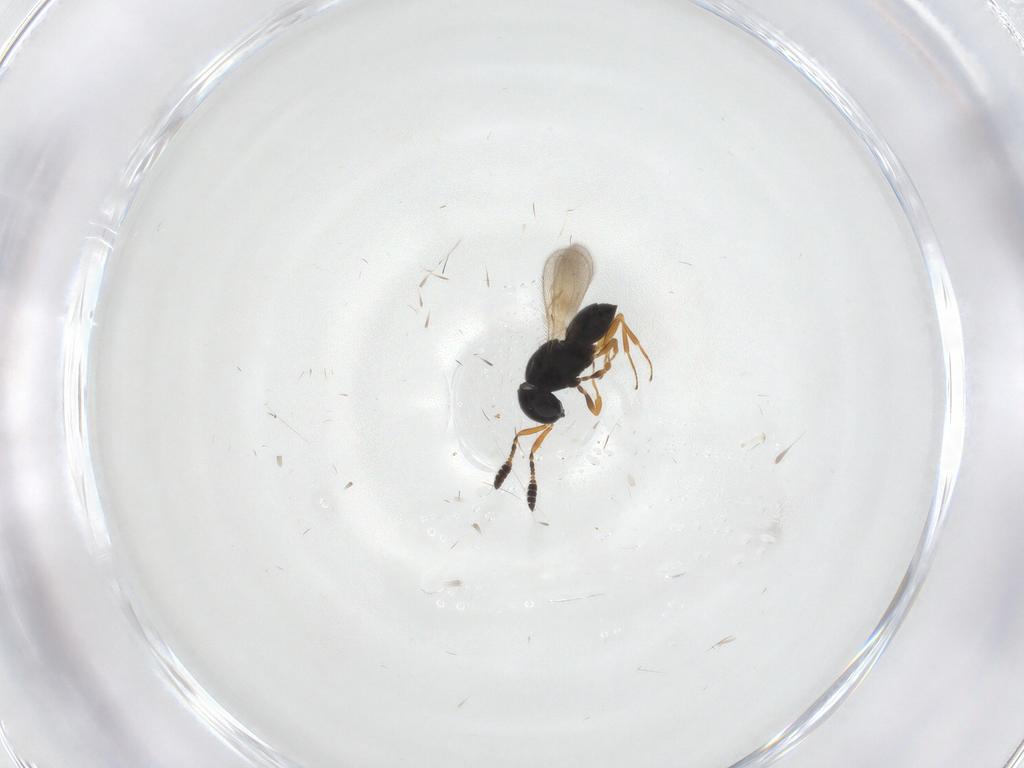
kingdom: Animalia
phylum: Arthropoda
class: Insecta
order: Hymenoptera
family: Scelionidae
